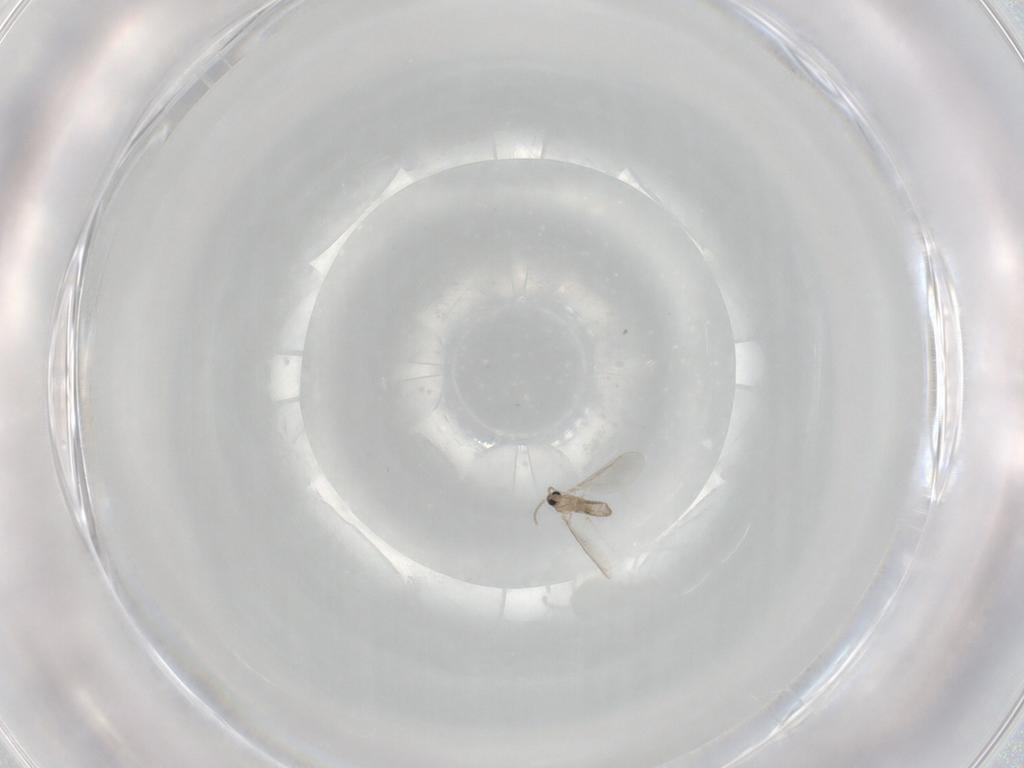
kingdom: Animalia
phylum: Arthropoda
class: Insecta
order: Diptera
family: Cecidomyiidae
